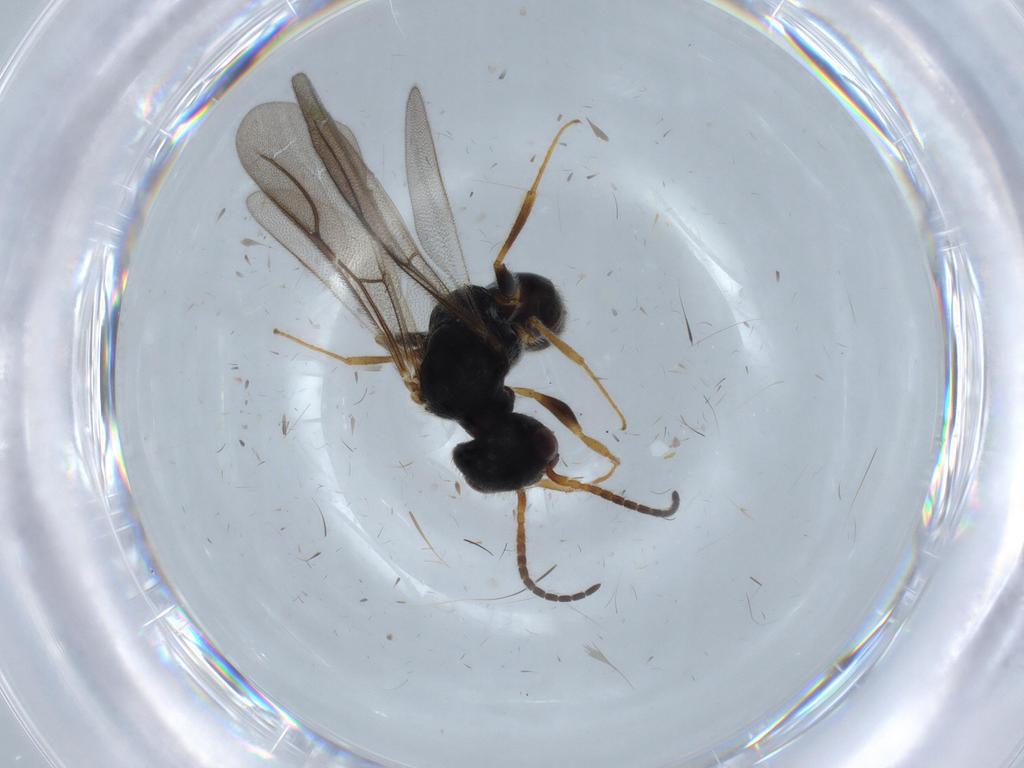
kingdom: Animalia
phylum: Arthropoda
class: Insecta
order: Hymenoptera
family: Bethylidae
